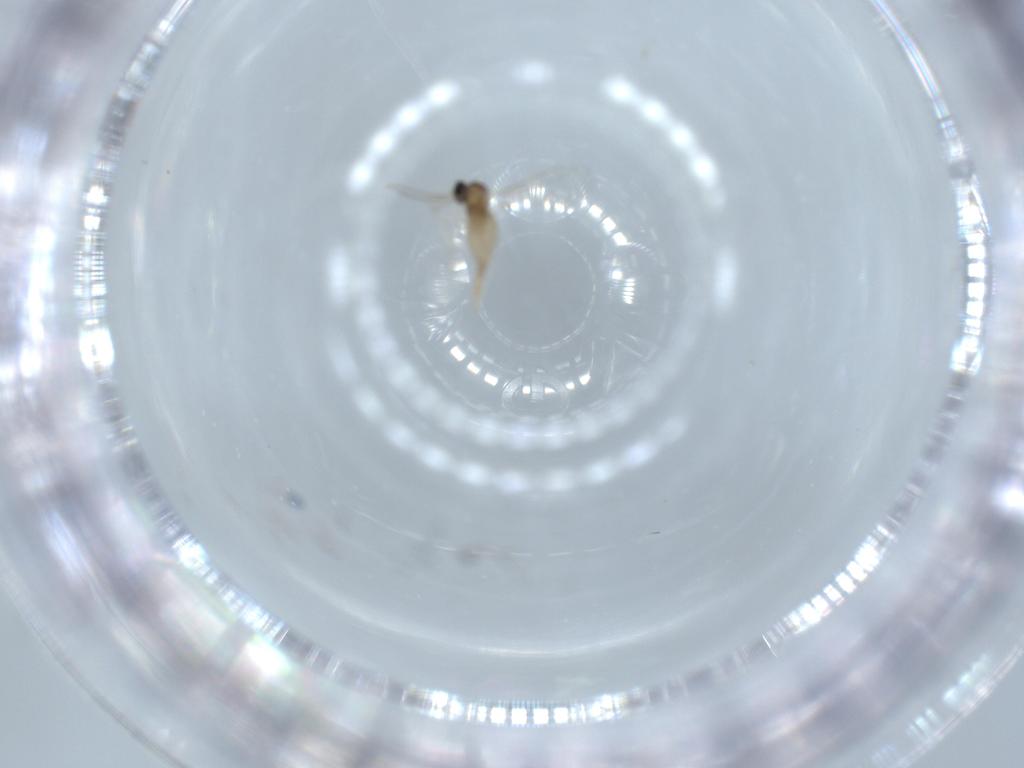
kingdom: Animalia
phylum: Arthropoda
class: Insecta
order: Diptera
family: Cecidomyiidae
